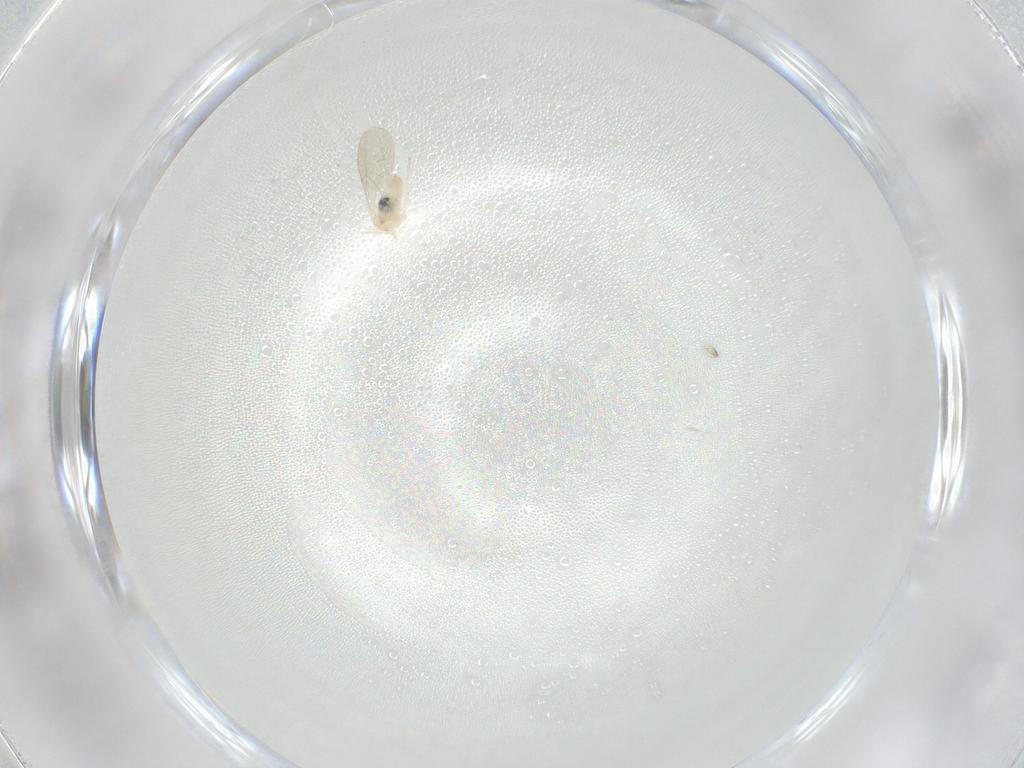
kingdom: Animalia
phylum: Arthropoda
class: Insecta
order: Diptera
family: Cecidomyiidae
